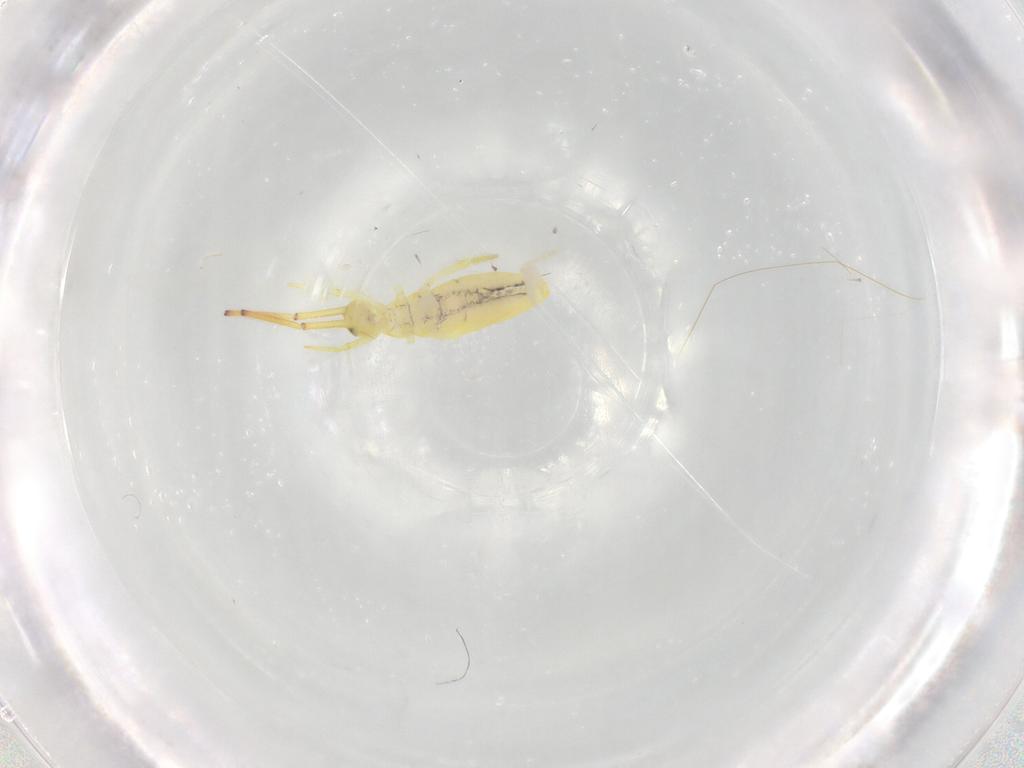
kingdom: Animalia
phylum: Arthropoda
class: Collembola
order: Entomobryomorpha
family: Entomobryidae
